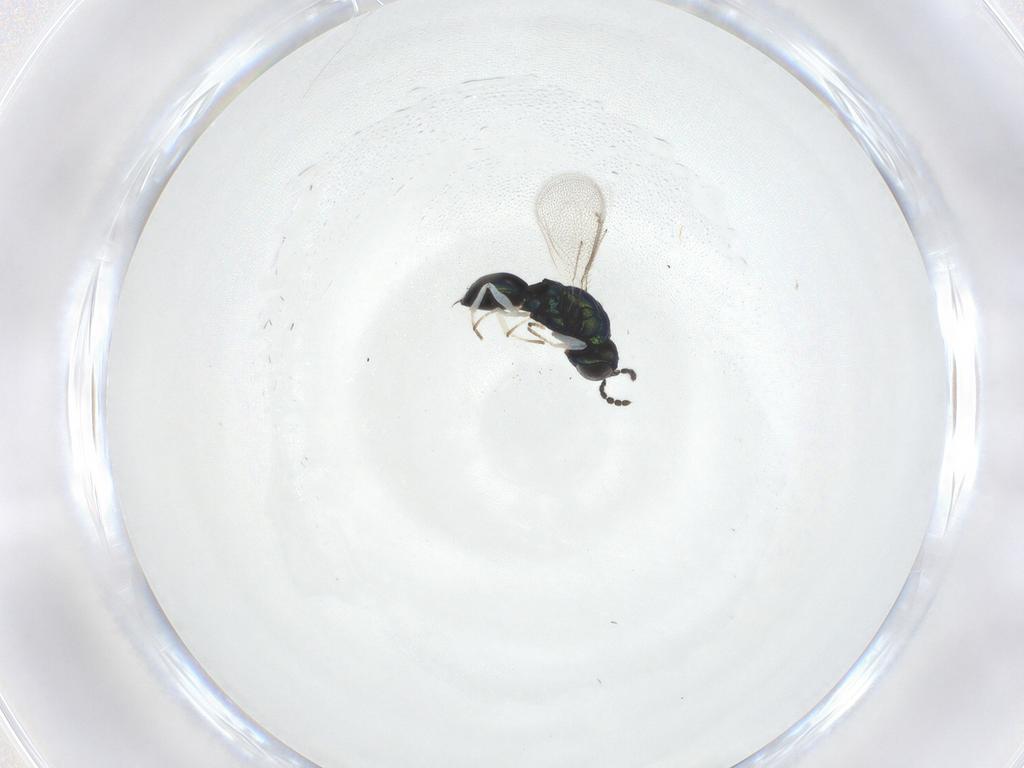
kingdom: Animalia
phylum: Arthropoda
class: Insecta
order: Hymenoptera
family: Eulophidae
